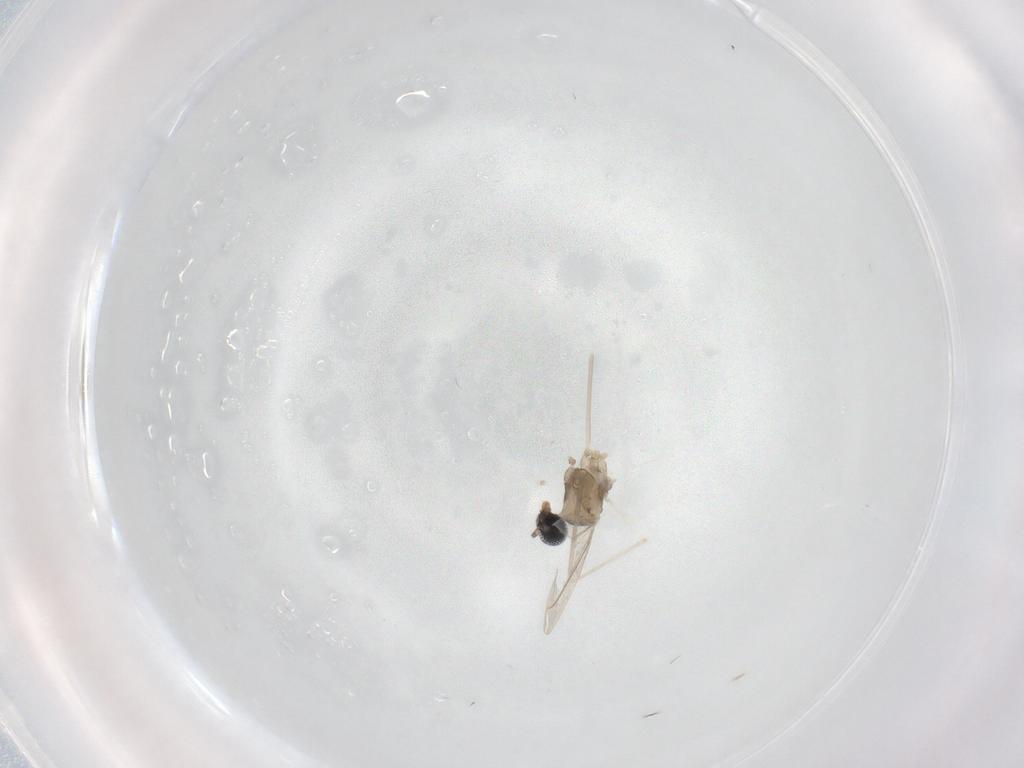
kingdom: Animalia
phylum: Arthropoda
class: Insecta
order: Diptera
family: Cecidomyiidae
